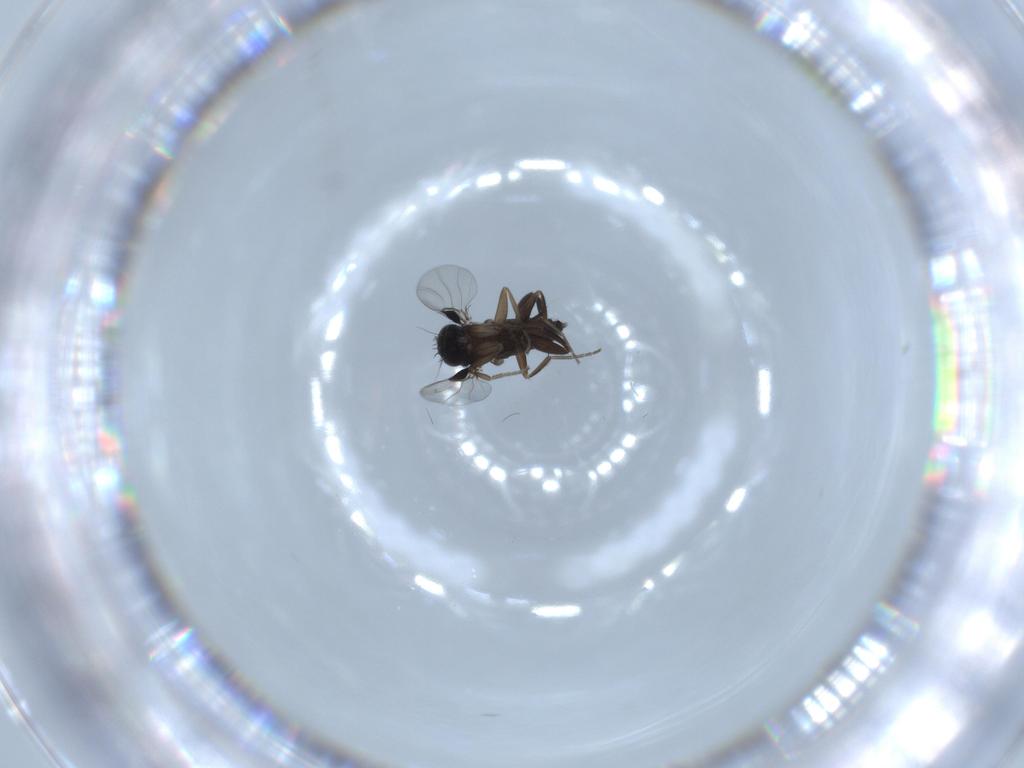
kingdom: Animalia
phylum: Arthropoda
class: Insecta
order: Diptera
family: Phoridae
